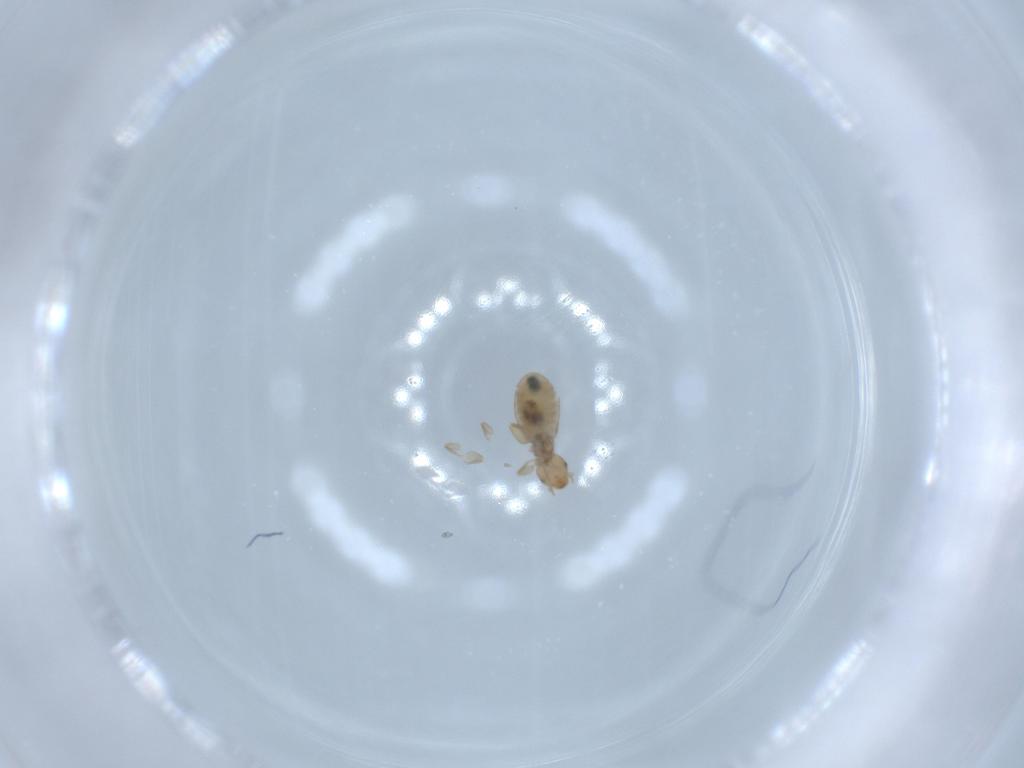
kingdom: Animalia
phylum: Arthropoda
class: Insecta
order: Psocodea
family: Liposcelididae
